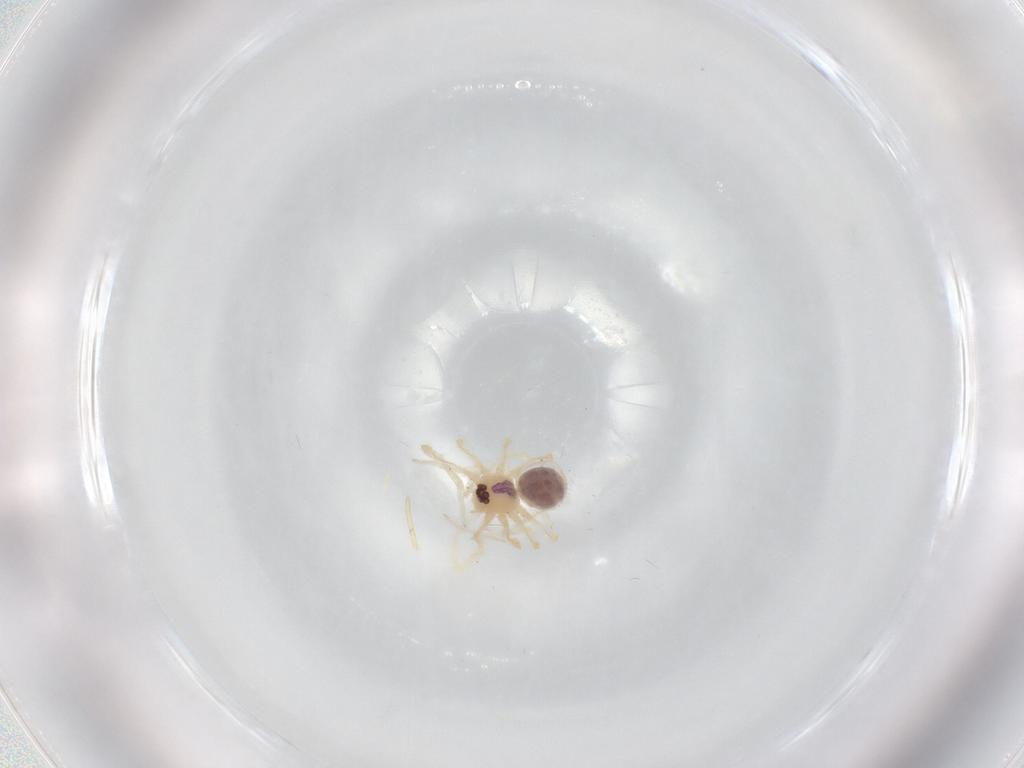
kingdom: Animalia
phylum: Arthropoda
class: Arachnida
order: Araneae
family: Pholcidae
